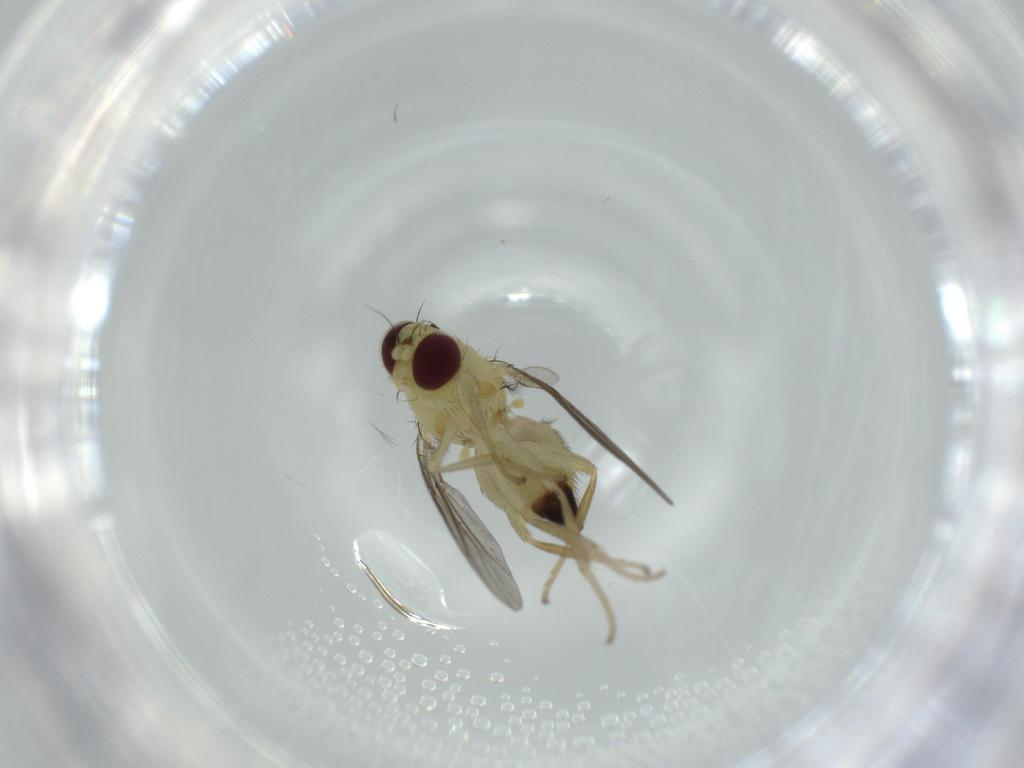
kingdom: Animalia
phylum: Arthropoda
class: Insecta
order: Diptera
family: Agromyzidae
